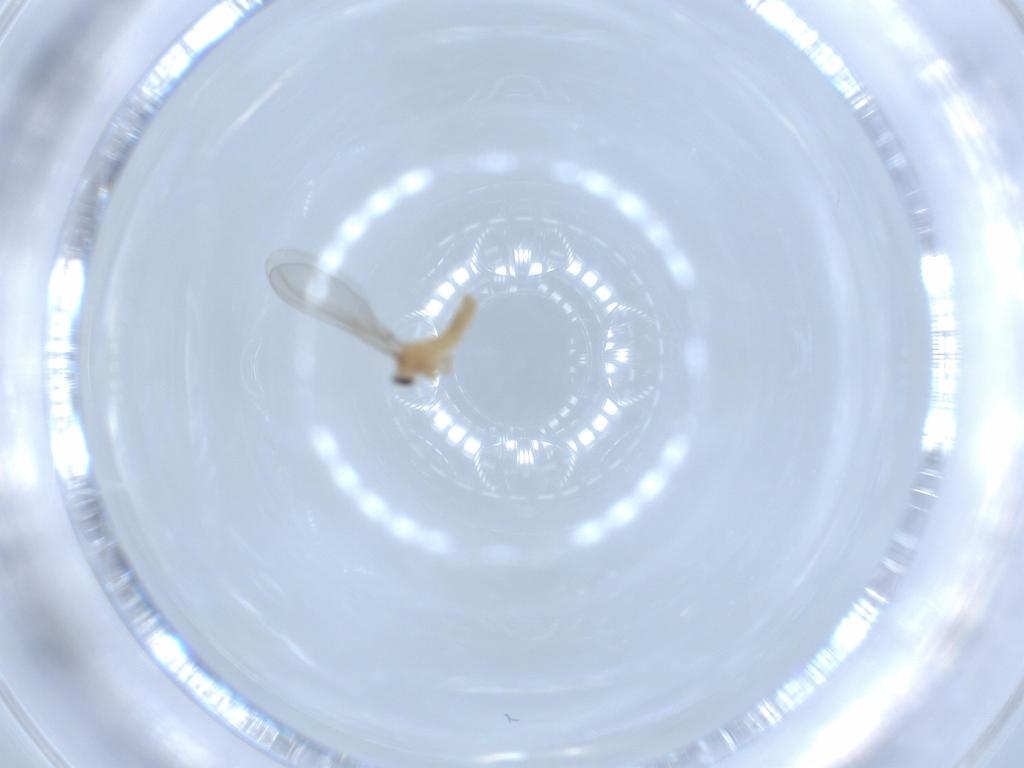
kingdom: Animalia
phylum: Arthropoda
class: Insecta
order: Diptera
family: Cecidomyiidae
